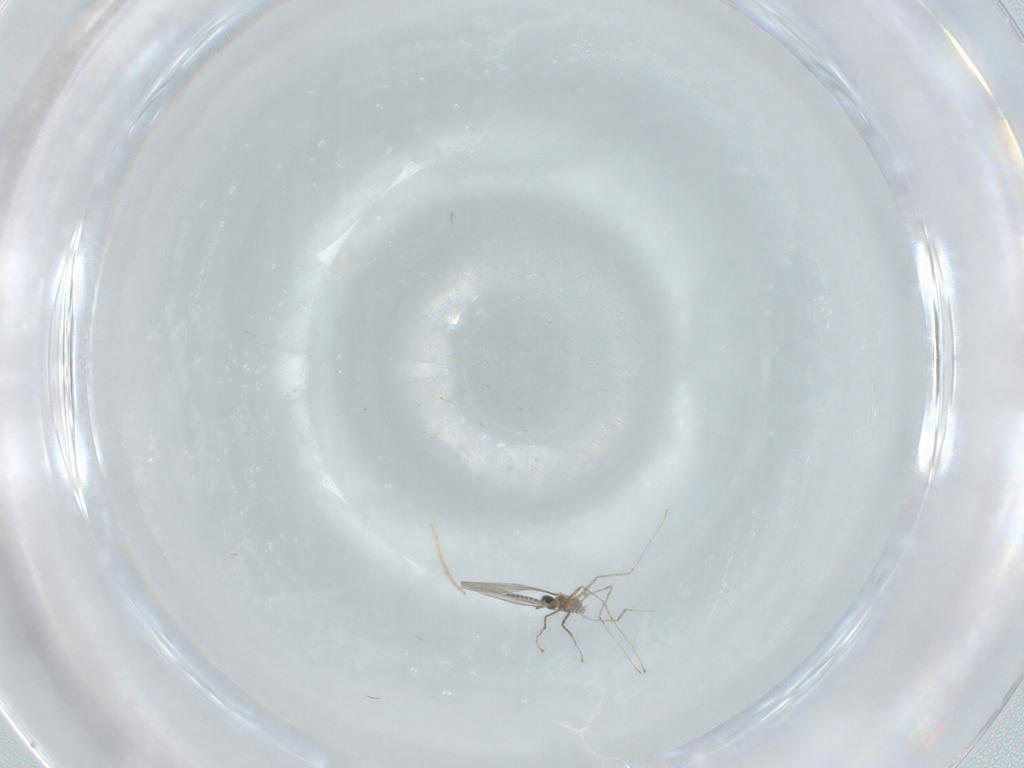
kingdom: Animalia
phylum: Arthropoda
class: Insecta
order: Diptera
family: Cecidomyiidae
